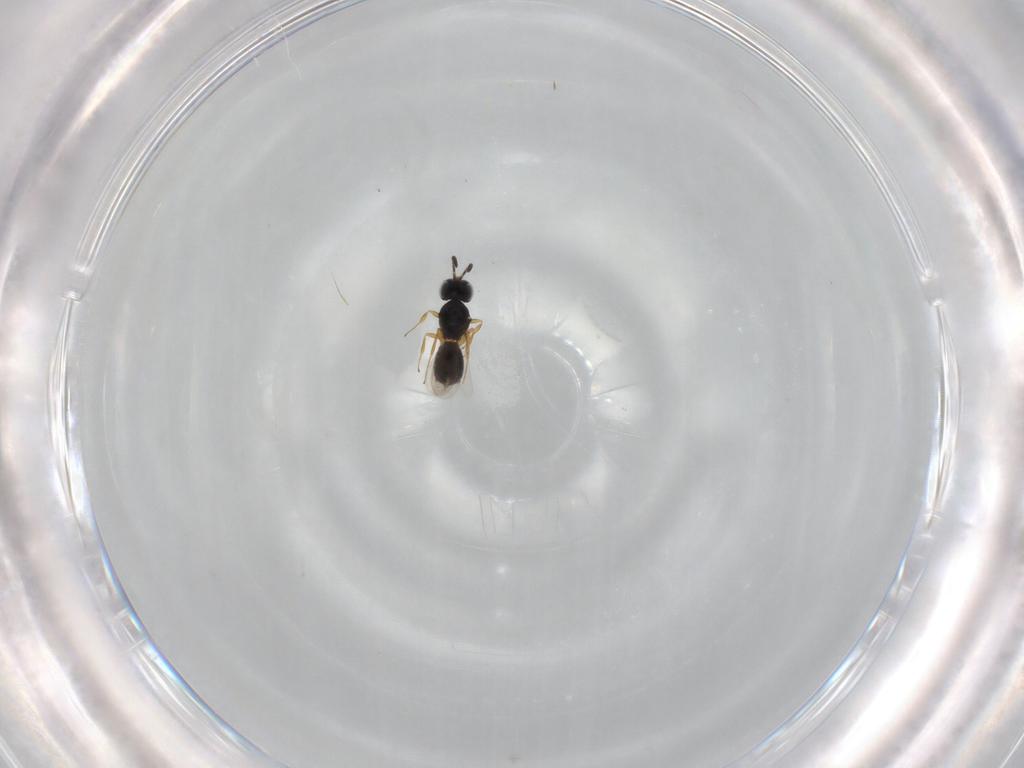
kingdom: Animalia
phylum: Arthropoda
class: Insecta
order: Hymenoptera
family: Scelionidae
